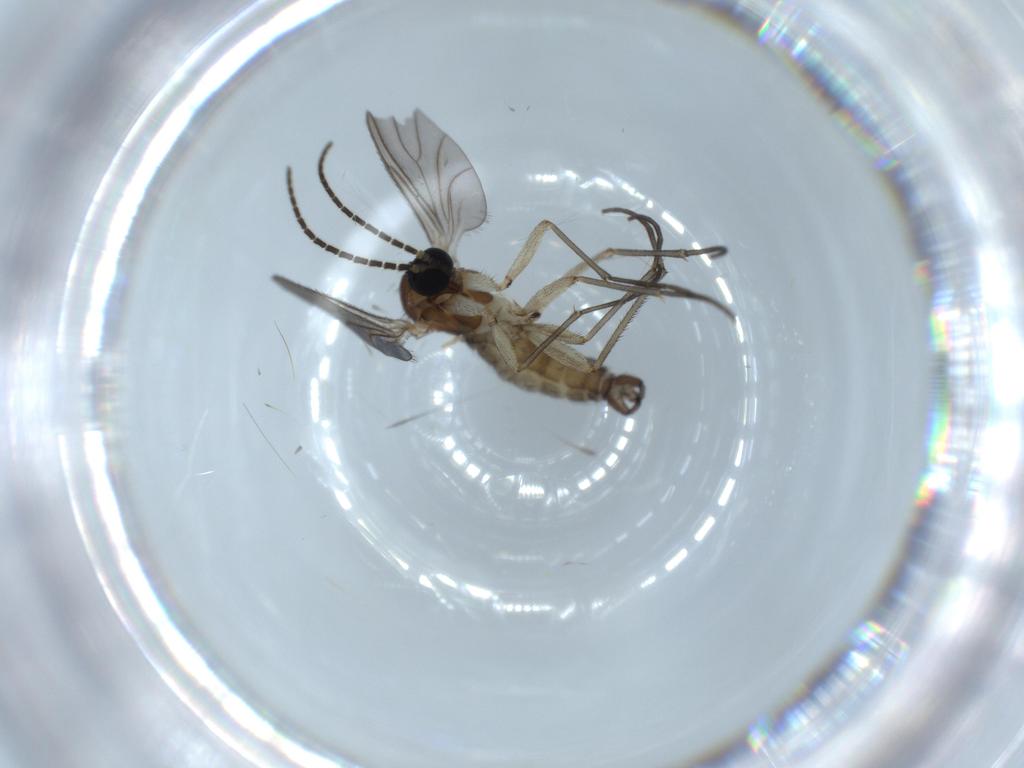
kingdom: Animalia
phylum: Arthropoda
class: Insecta
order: Diptera
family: Sciaridae
